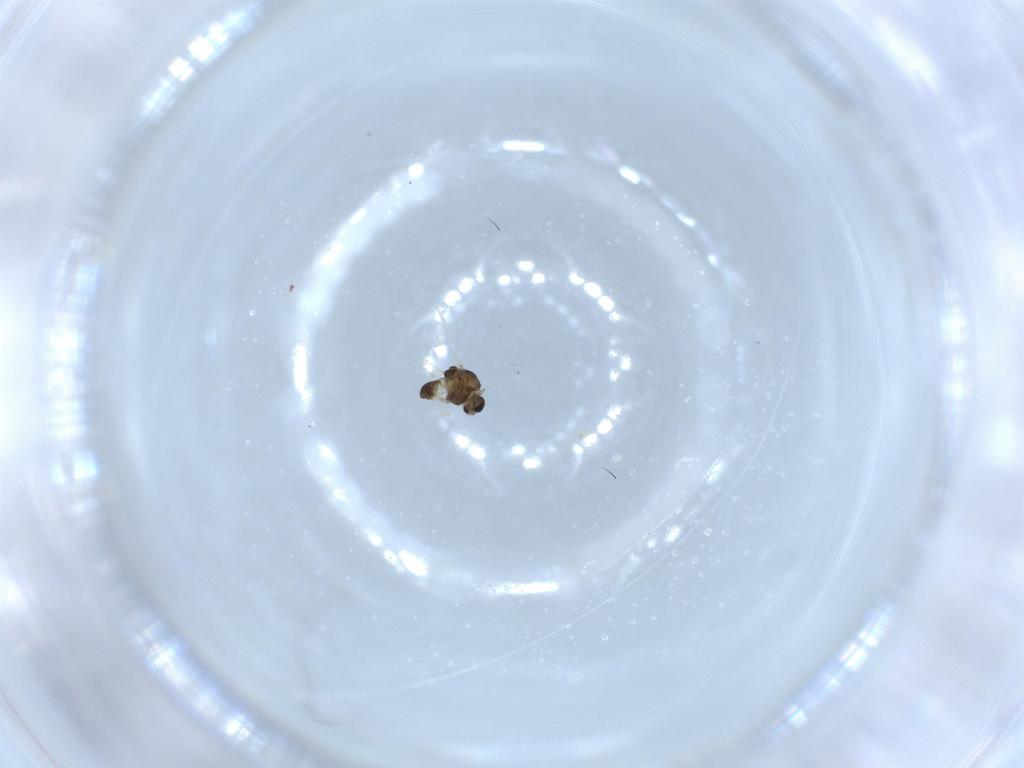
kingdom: Animalia
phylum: Arthropoda
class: Insecta
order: Diptera
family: Chironomidae
